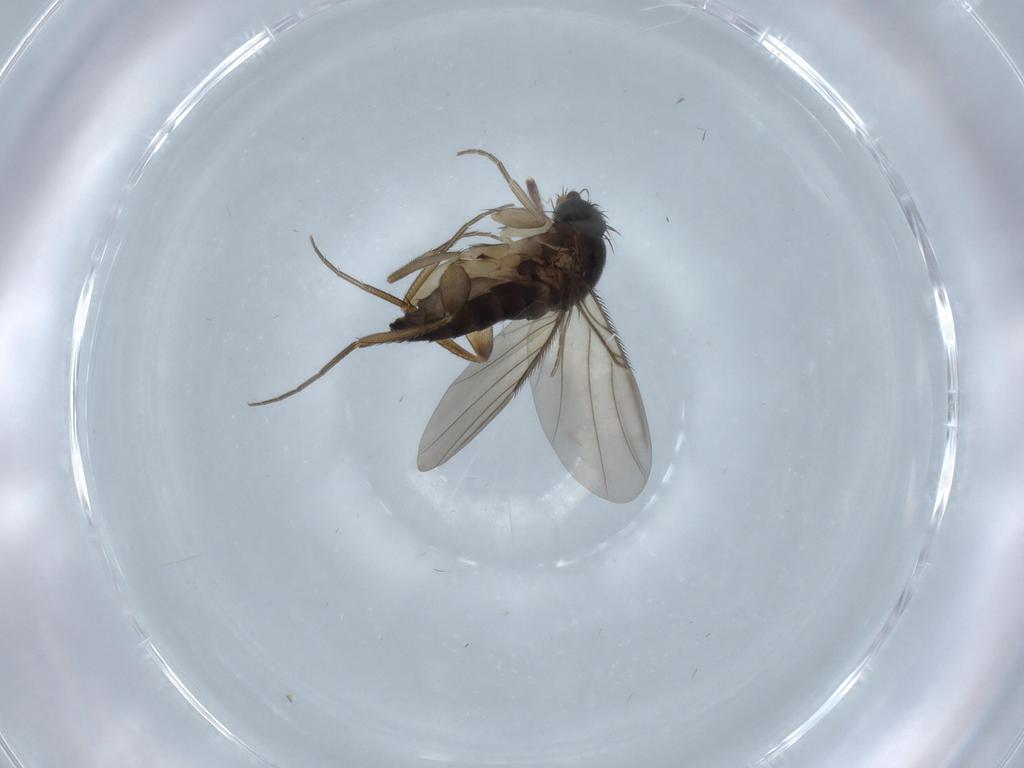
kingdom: Animalia
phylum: Arthropoda
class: Insecta
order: Diptera
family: Phoridae
